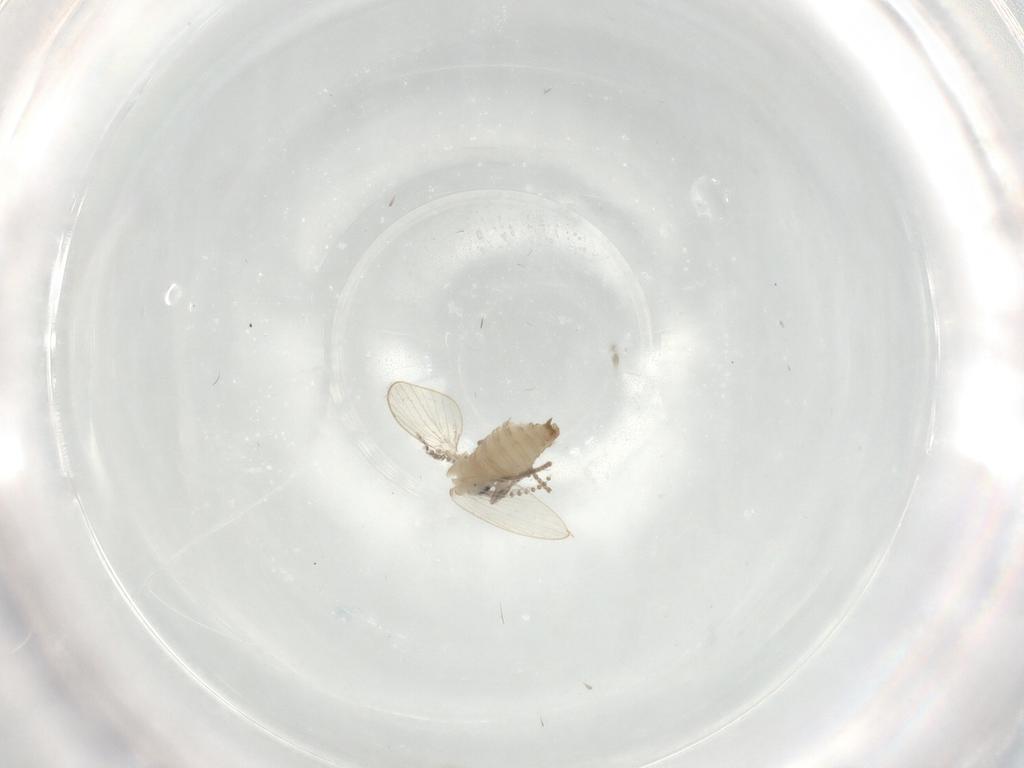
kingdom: Animalia
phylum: Arthropoda
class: Insecta
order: Diptera
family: Psychodidae
